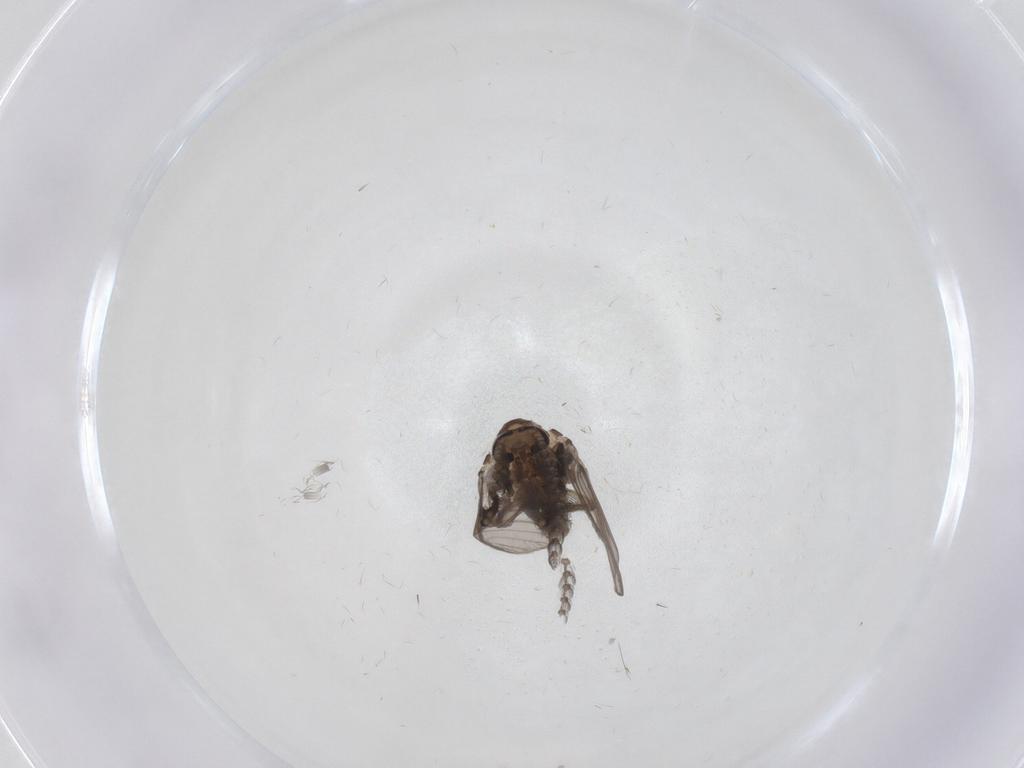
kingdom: Animalia
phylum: Arthropoda
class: Insecta
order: Diptera
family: Psychodidae
